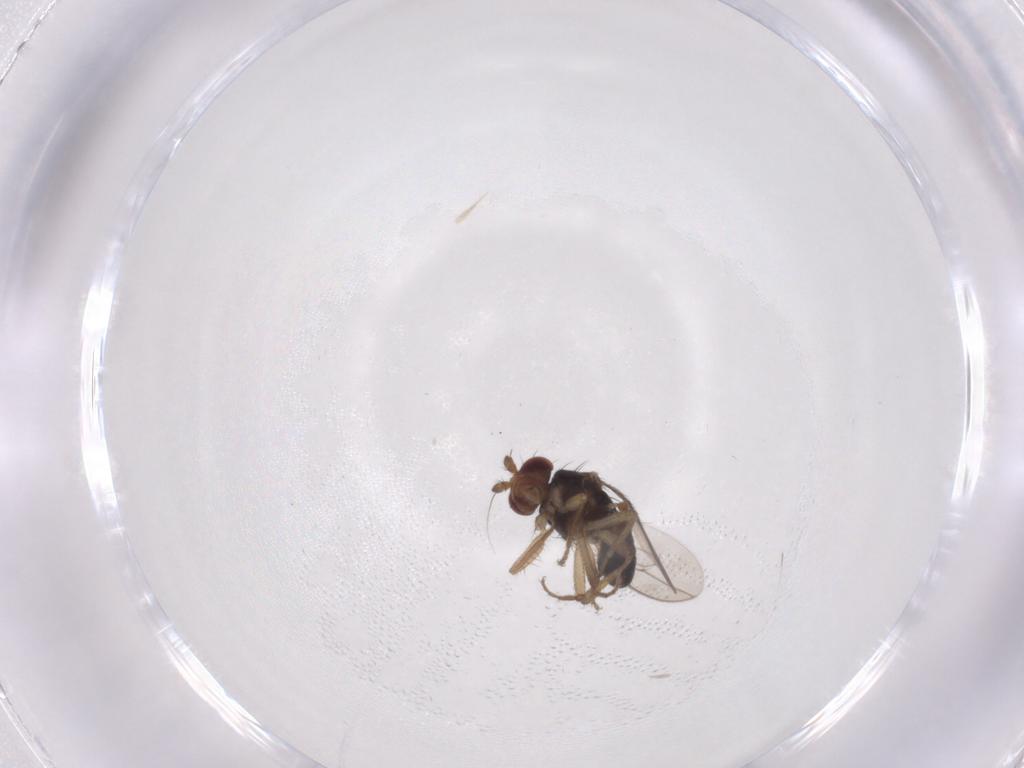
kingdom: Animalia
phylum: Arthropoda
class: Insecta
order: Diptera
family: Sphaeroceridae
